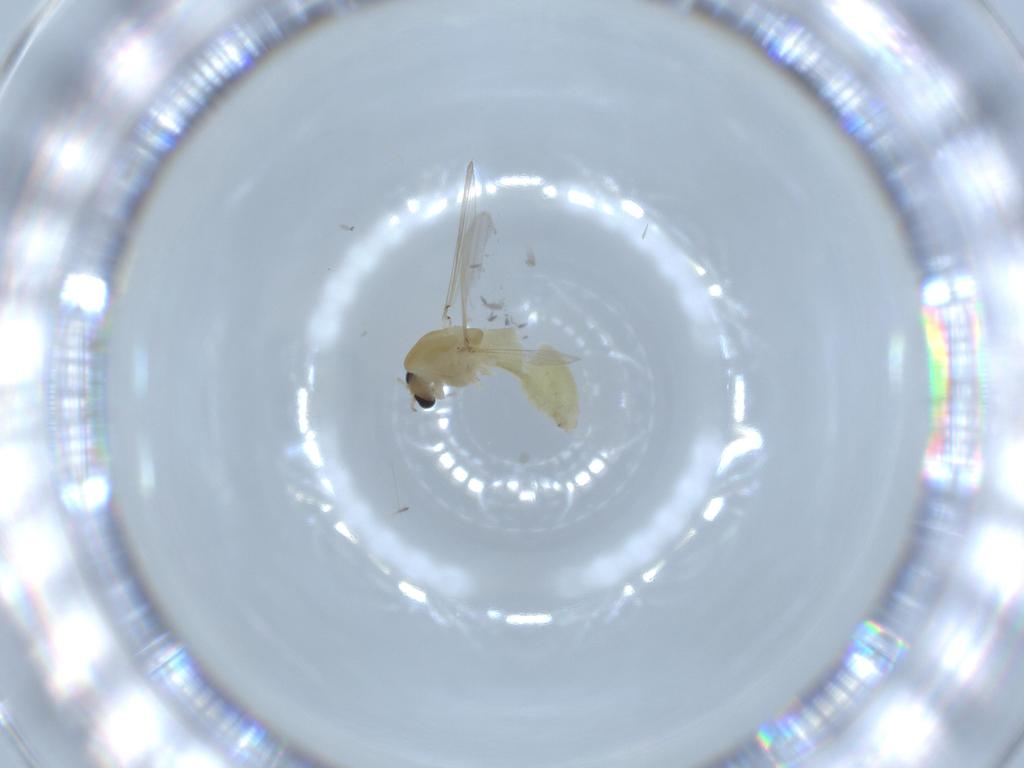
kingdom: Animalia
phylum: Arthropoda
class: Insecta
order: Diptera
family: Chironomidae
